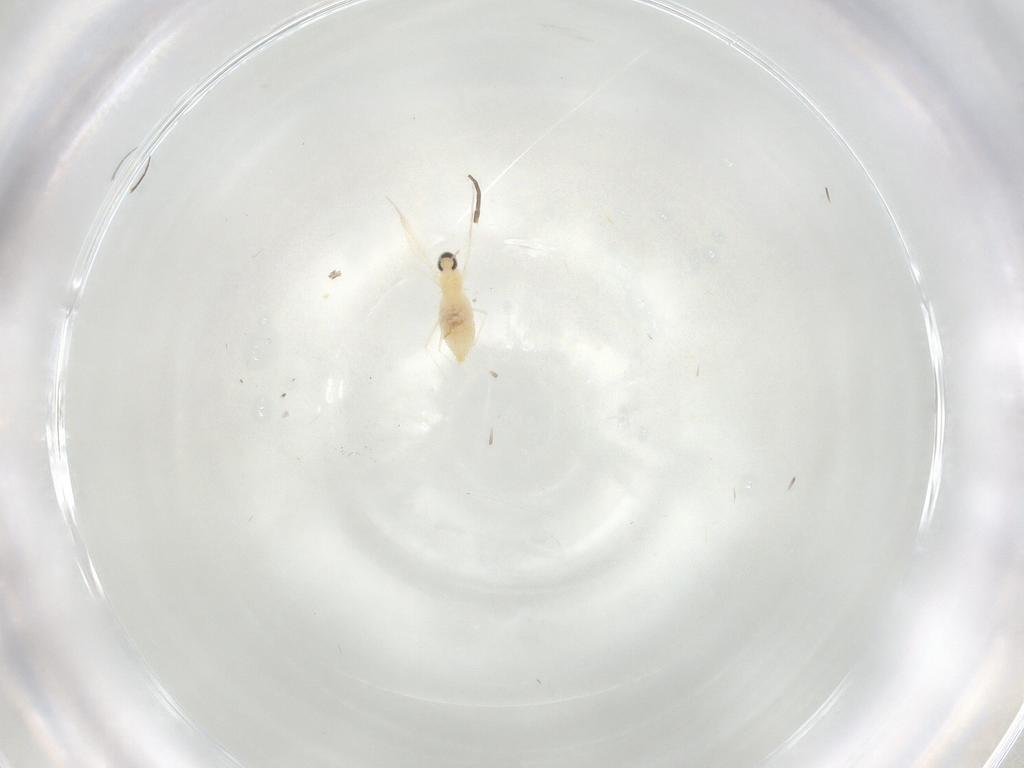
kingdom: Animalia
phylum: Arthropoda
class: Insecta
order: Diptera
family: Cecidomyiidae
